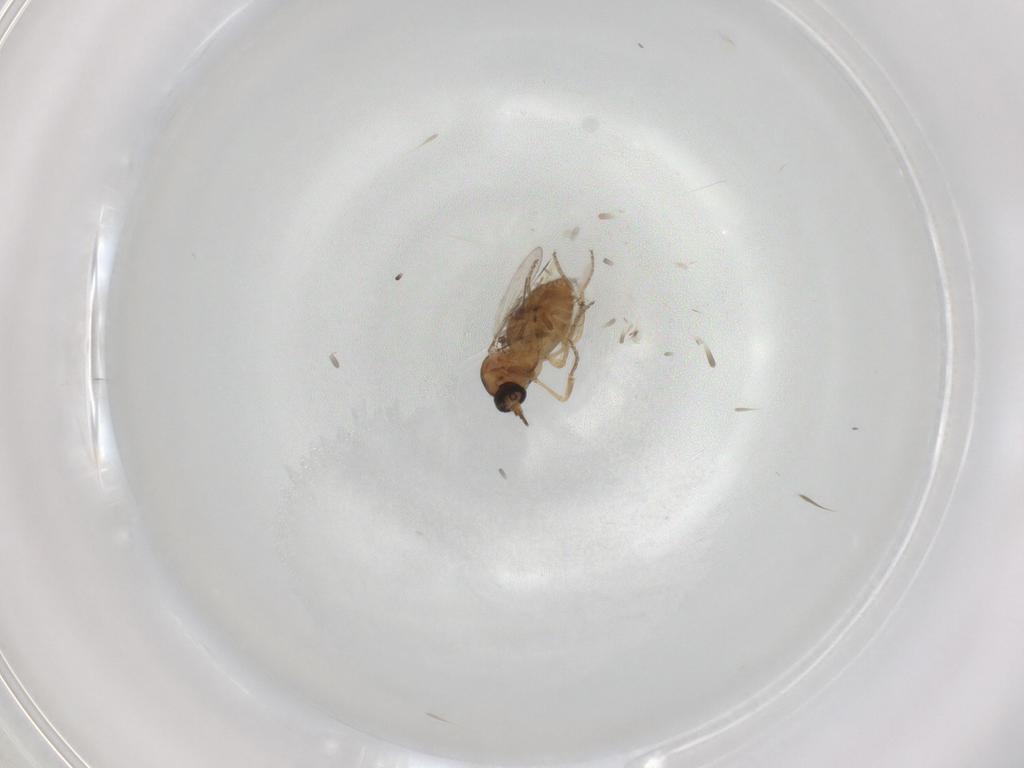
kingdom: Animalia
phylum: Arthropoda
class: Insecta
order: Diptera
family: Ceratopogonidae
